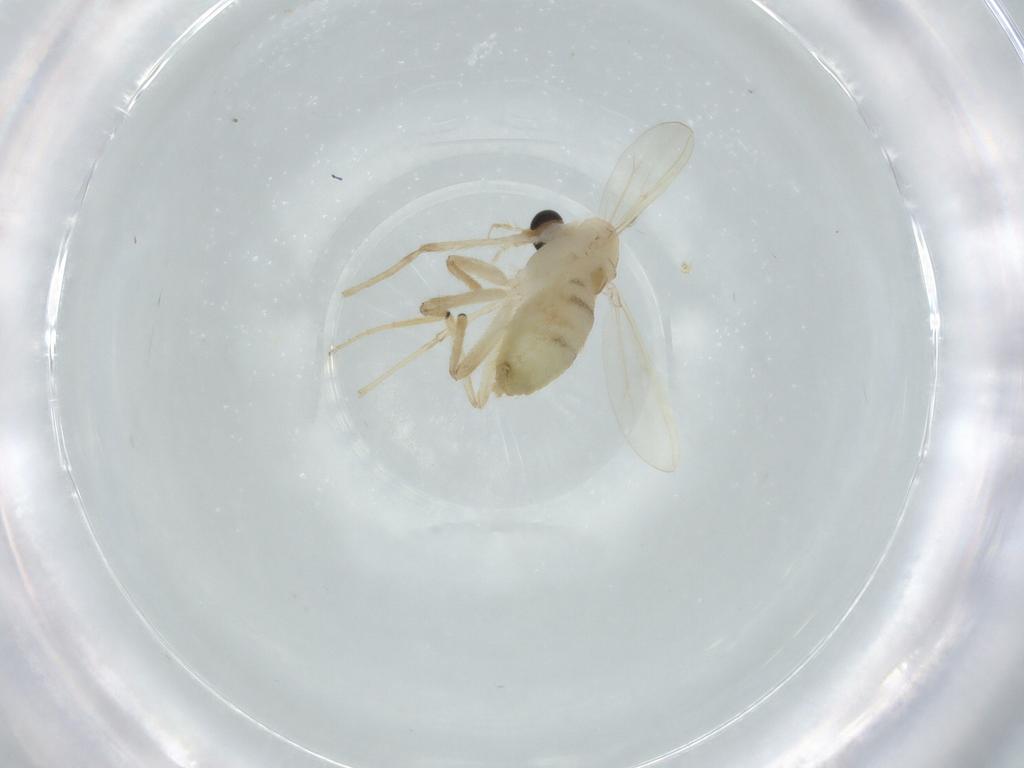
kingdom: Animalia
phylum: Arthropoda
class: Insecta
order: Diptera
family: Chironomidae
